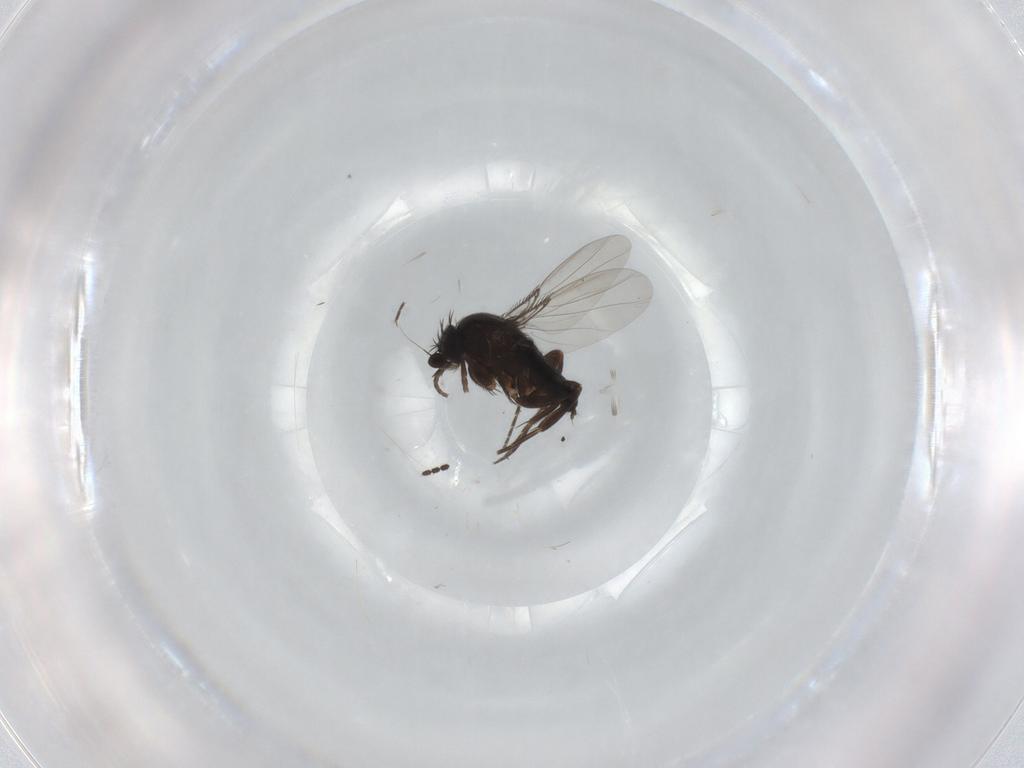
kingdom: Animalia
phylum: Arthropoda
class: Insecta
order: Diptera
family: Phoridae
